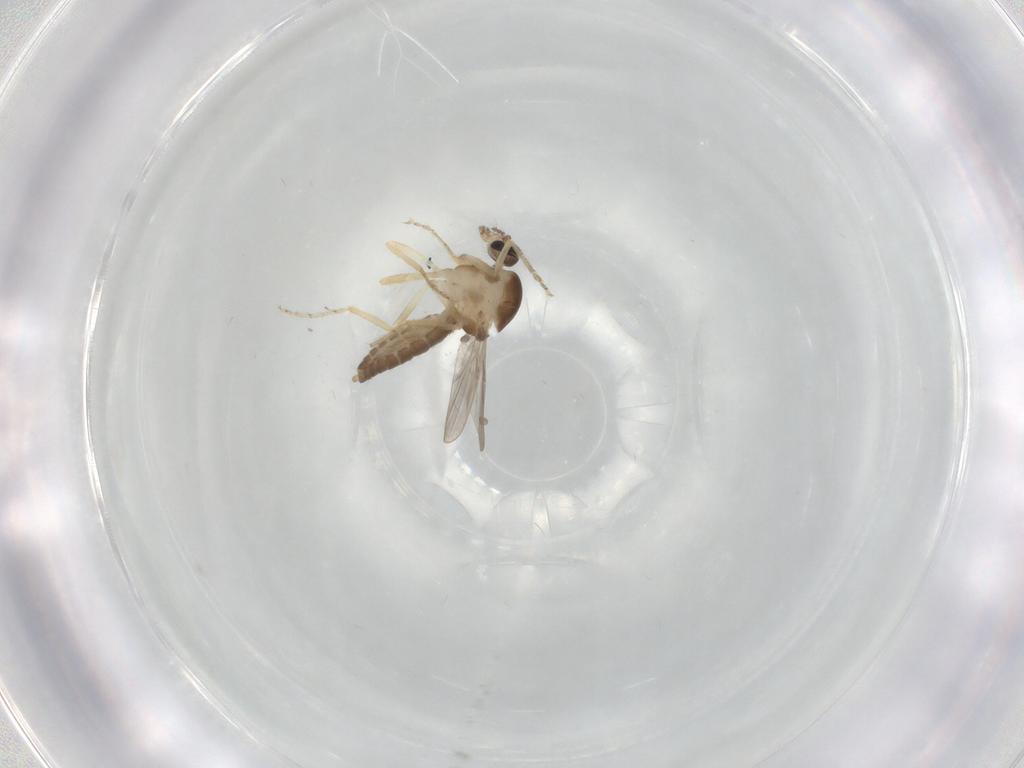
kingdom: Animalia
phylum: Arthropoda
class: Insecta
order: Diptera
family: Ceratopogonidae
